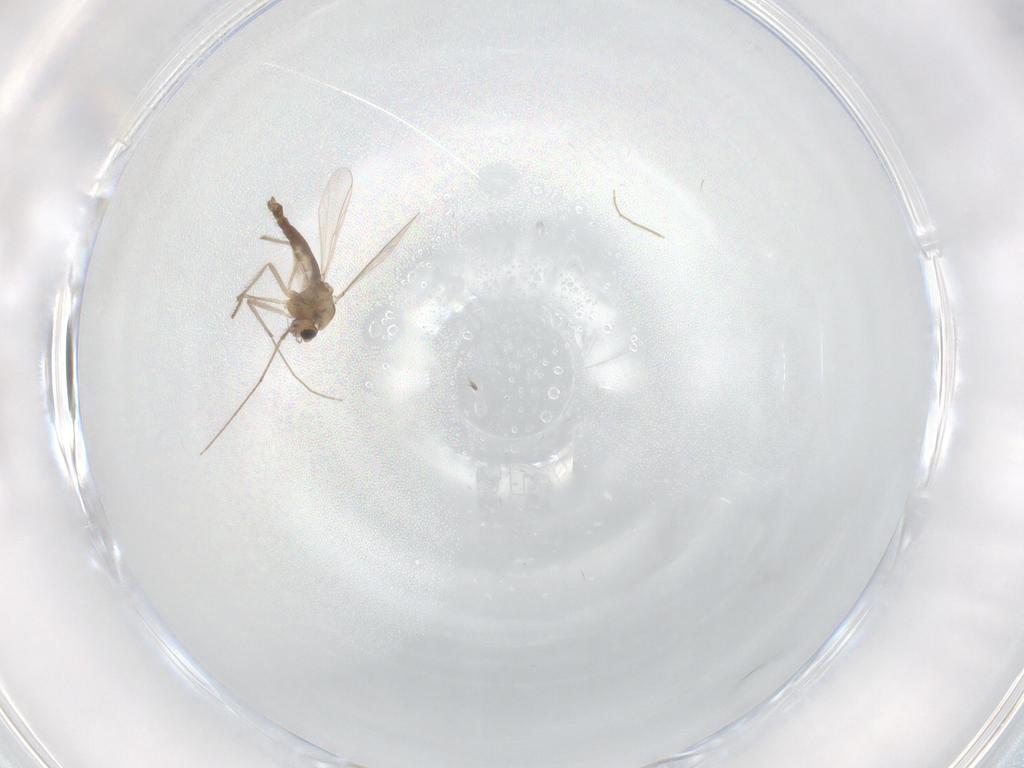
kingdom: Animalia
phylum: Arthropoda
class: Insecta
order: Diptera
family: Chironomidae
